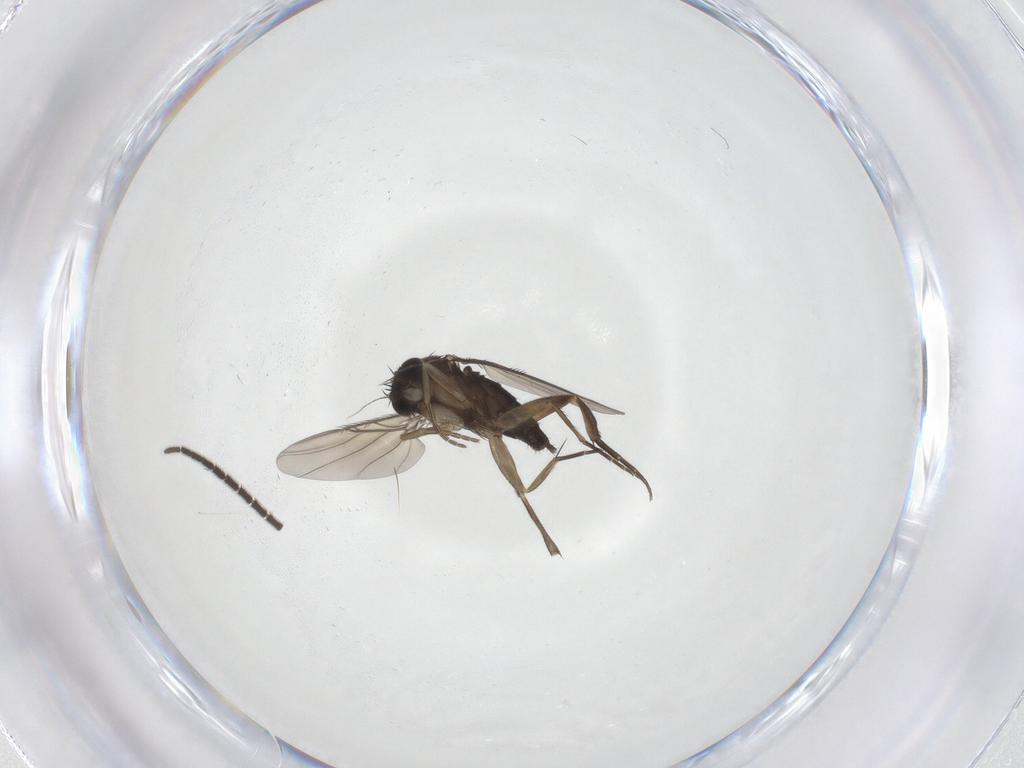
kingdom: Animalia
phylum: Arthropoda
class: Insecta
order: Diptera
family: Phoridae
